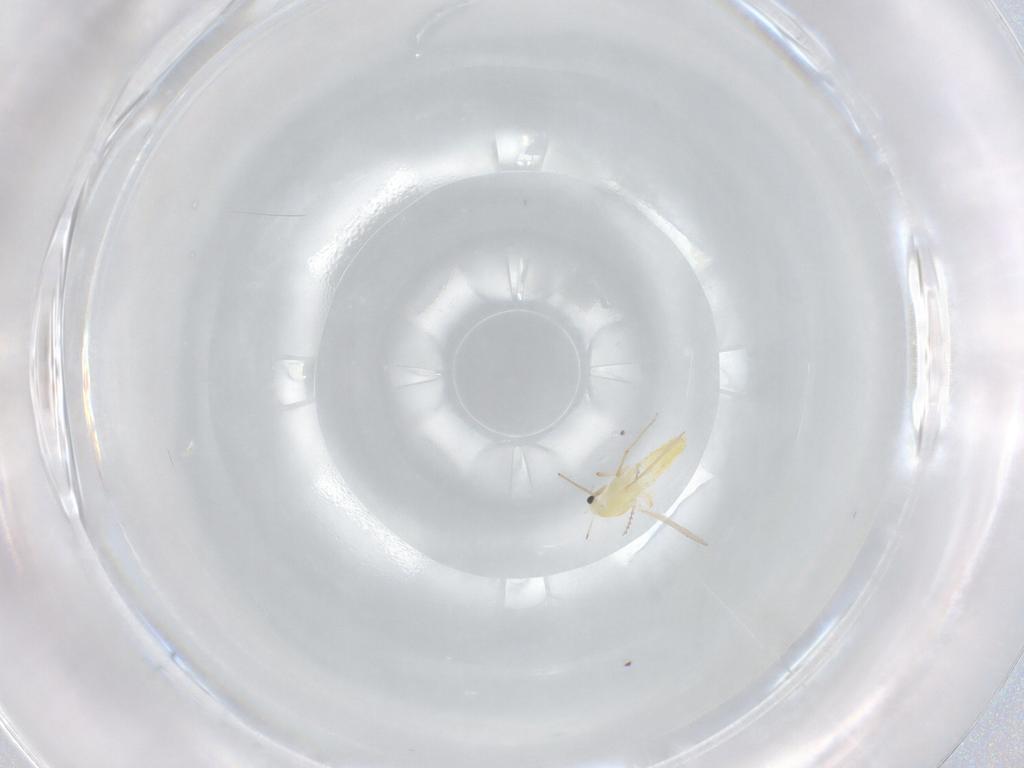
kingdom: Animalia
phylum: Arthropoda
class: Insecta
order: Diptera
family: Chironomidae
